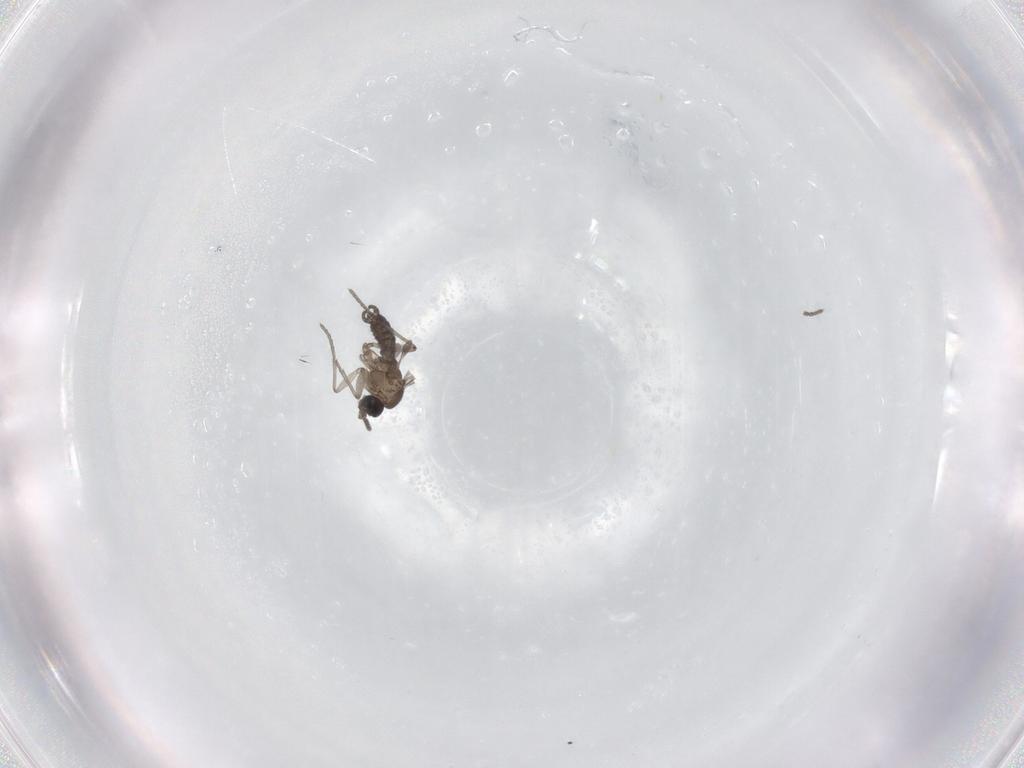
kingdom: Animalia
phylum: Arthropoda
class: Insecta
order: Diptera
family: Sciaridae
